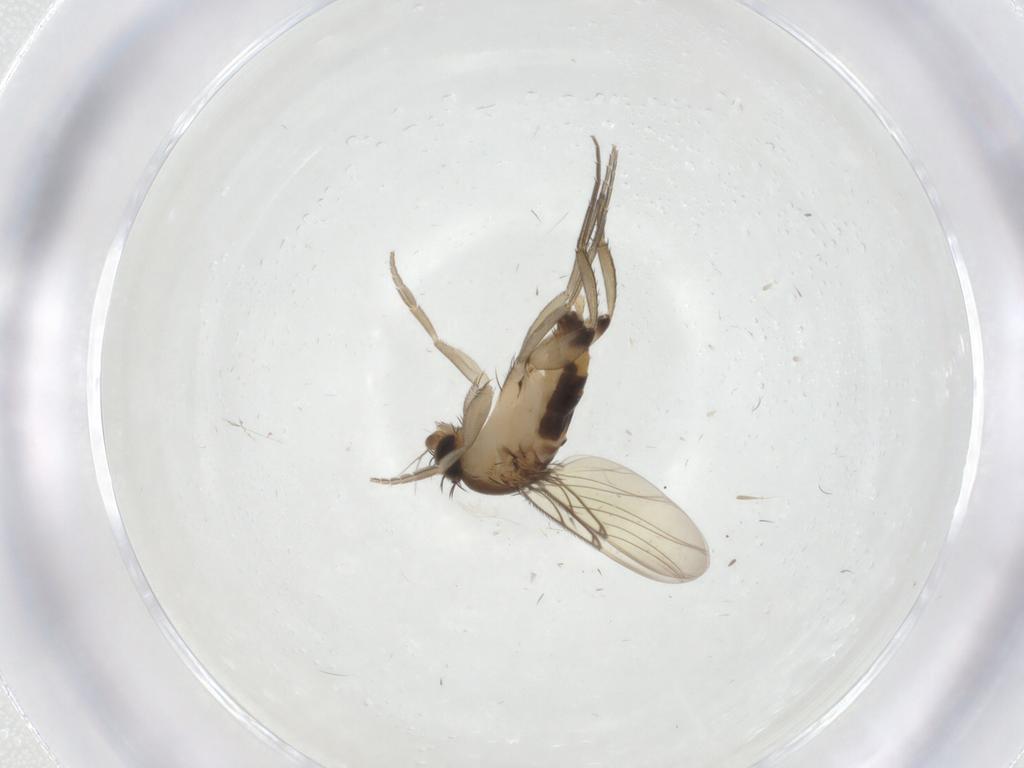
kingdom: Animalia
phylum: Arthropoda
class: Insecta
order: Diptera
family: Phoridae
